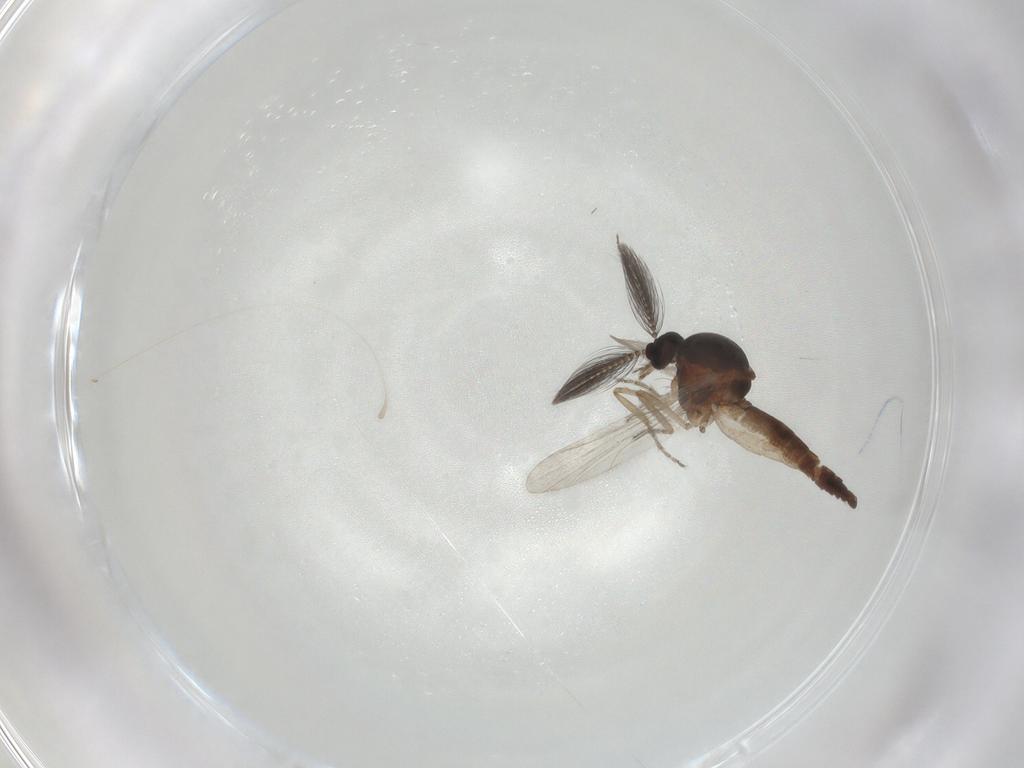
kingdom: Animalia
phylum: Arthropoda
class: Insecta
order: Diptera
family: Ceratopogonidae
